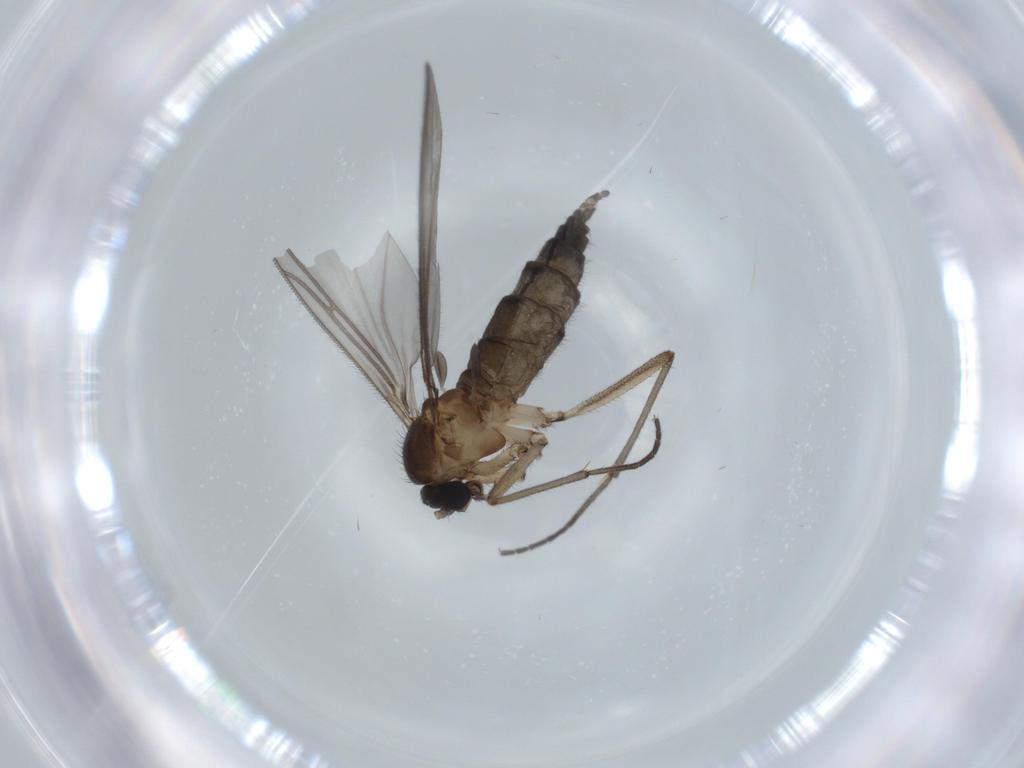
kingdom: Animalia
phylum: Arthropoda
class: Insecta
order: Diptera
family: Sciaridae
